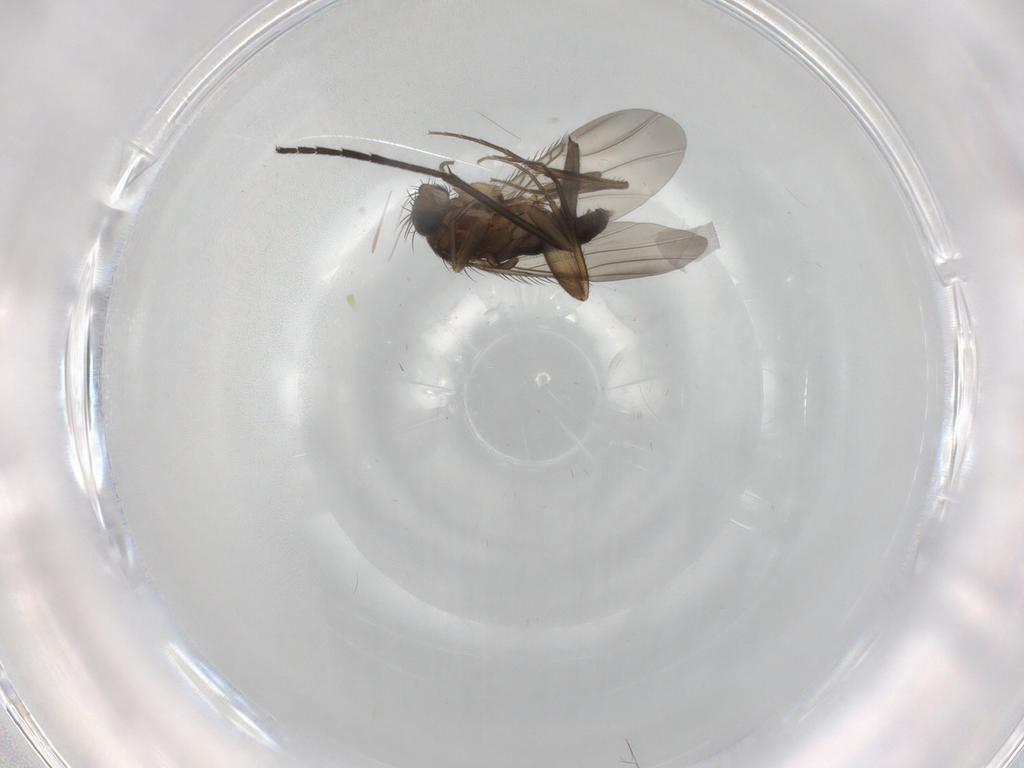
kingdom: Animalia
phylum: Arthropoda
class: Insecta
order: Diptera
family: Phoridae
